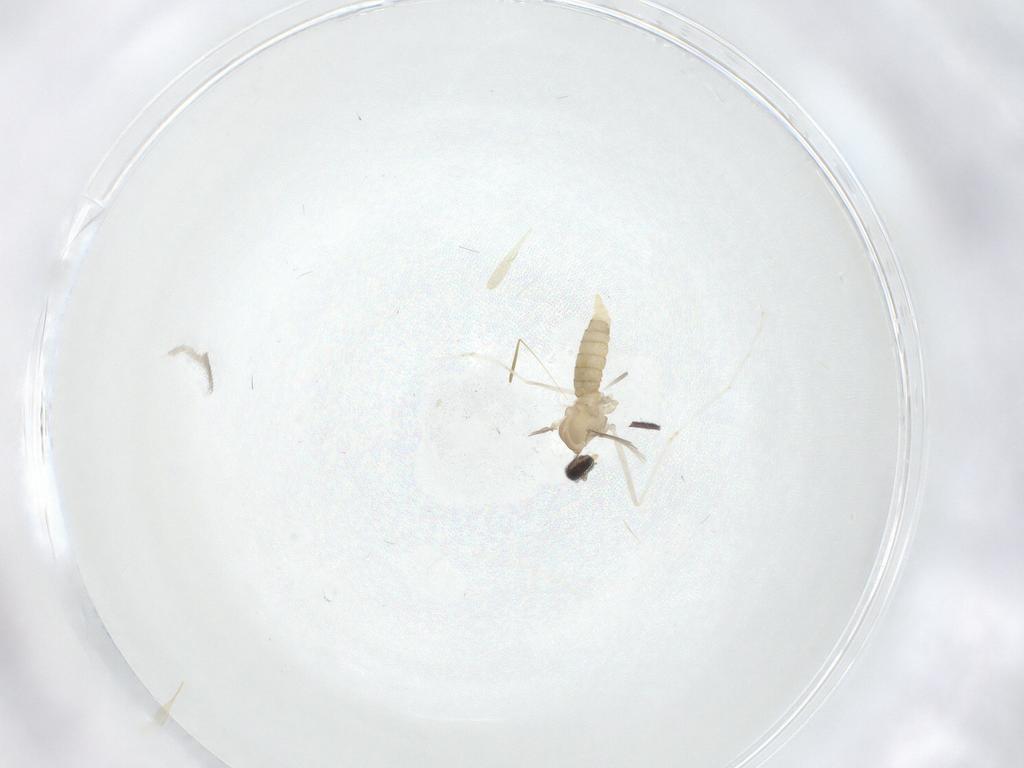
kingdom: Animalia
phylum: Arthropoda
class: Insecta
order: Diptera
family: Cecidomyiidae
